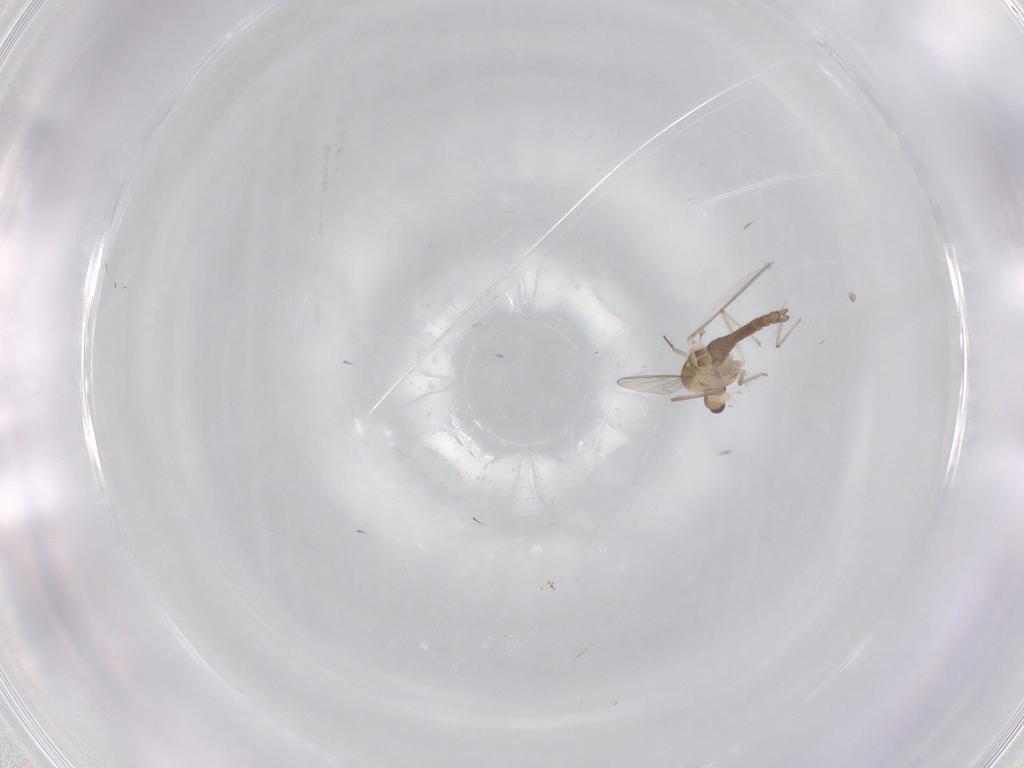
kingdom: Animalia
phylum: Arthropoda
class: Insecta
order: Diptera
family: Chironomidae
